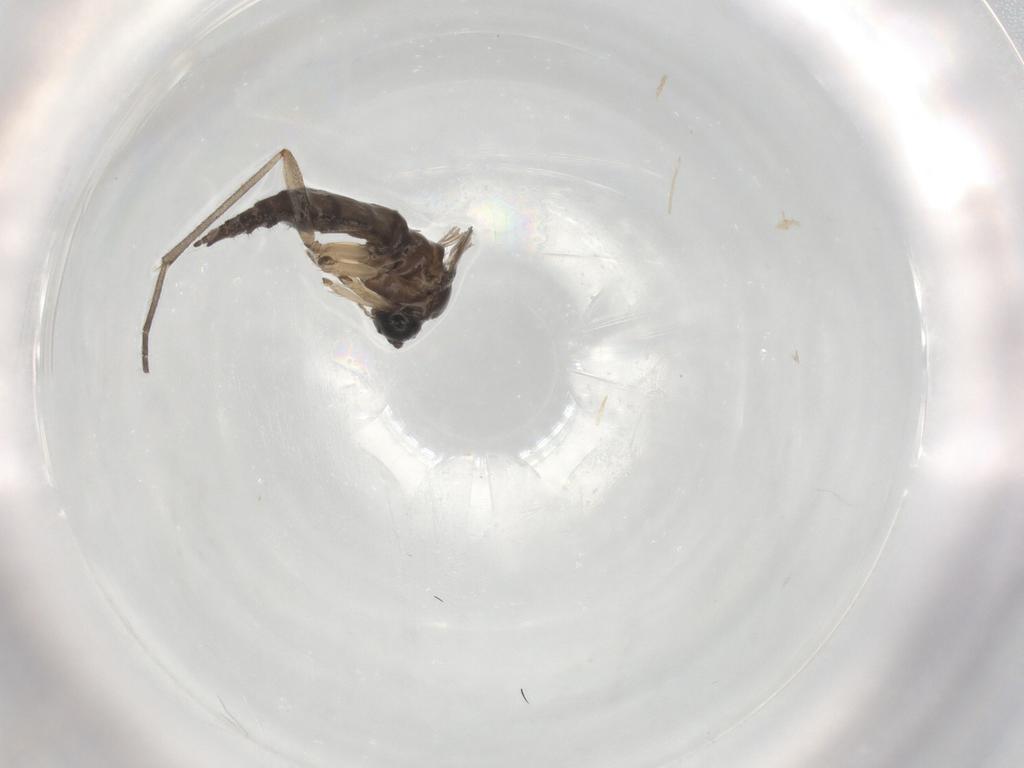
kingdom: Animalia
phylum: Arthropoda
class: Insecta
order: Diptera
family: Sciaridae
